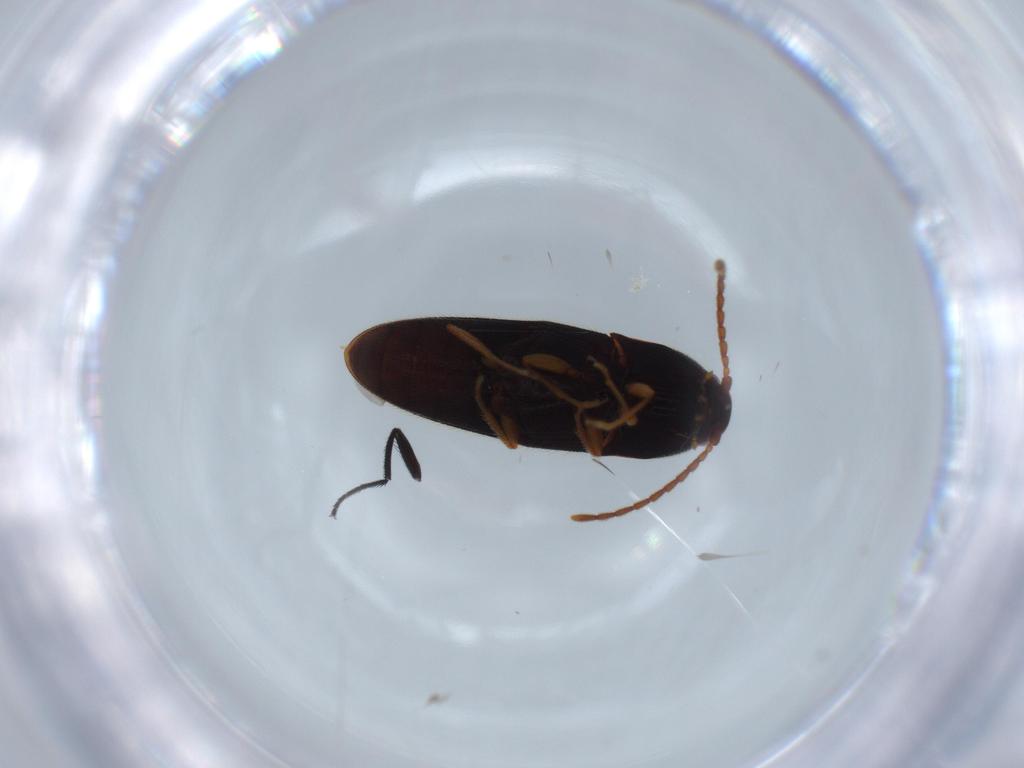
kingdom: Animalia
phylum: Arthropoda
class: Insecta
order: Coleoptera
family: Elateridae
